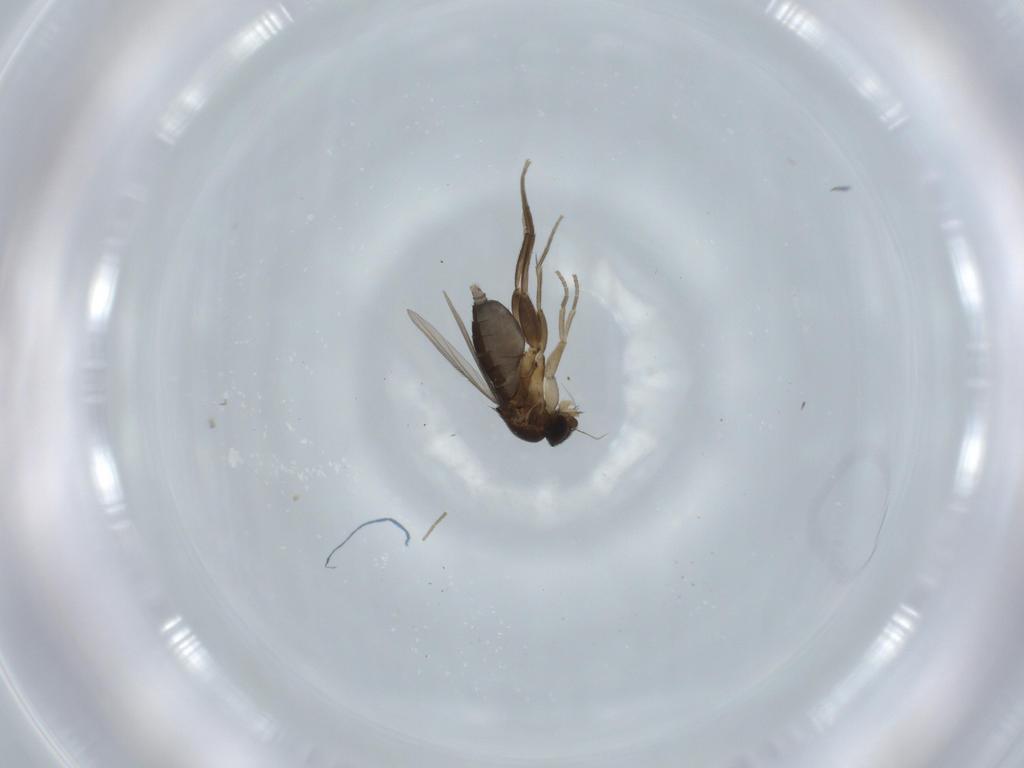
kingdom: Animalia
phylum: Arthropoda
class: Insecta
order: Diptera
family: Phoridae
